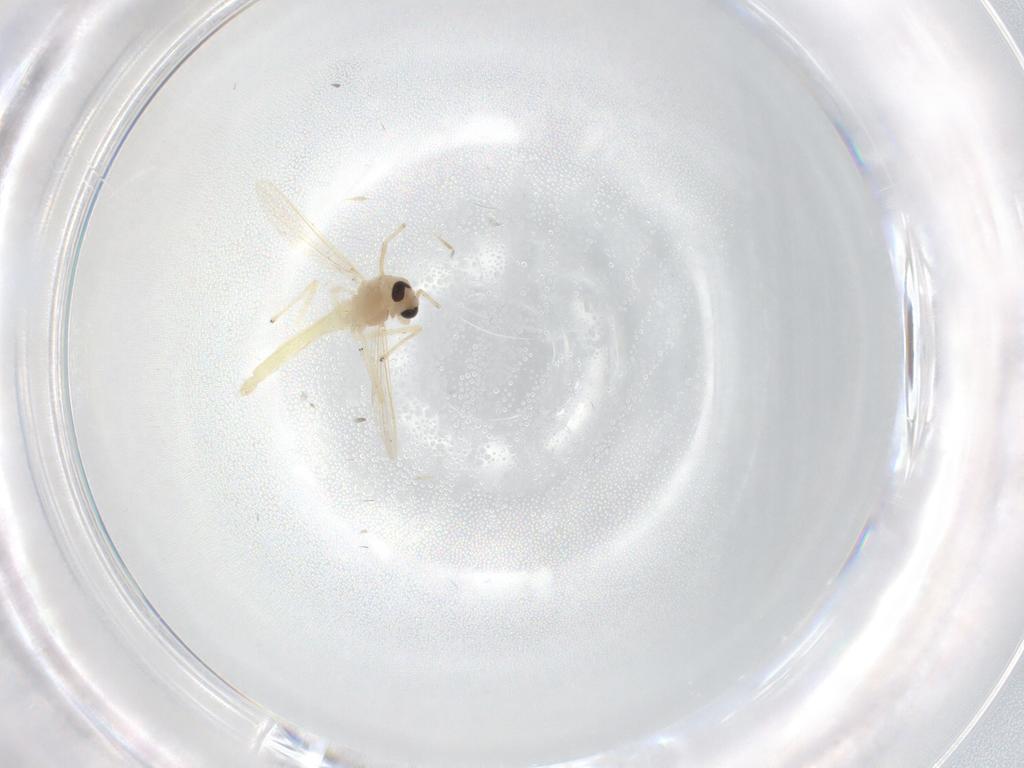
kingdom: Animalia
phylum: Arthropoda
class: Insecta
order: Diptera
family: Chironomidae
